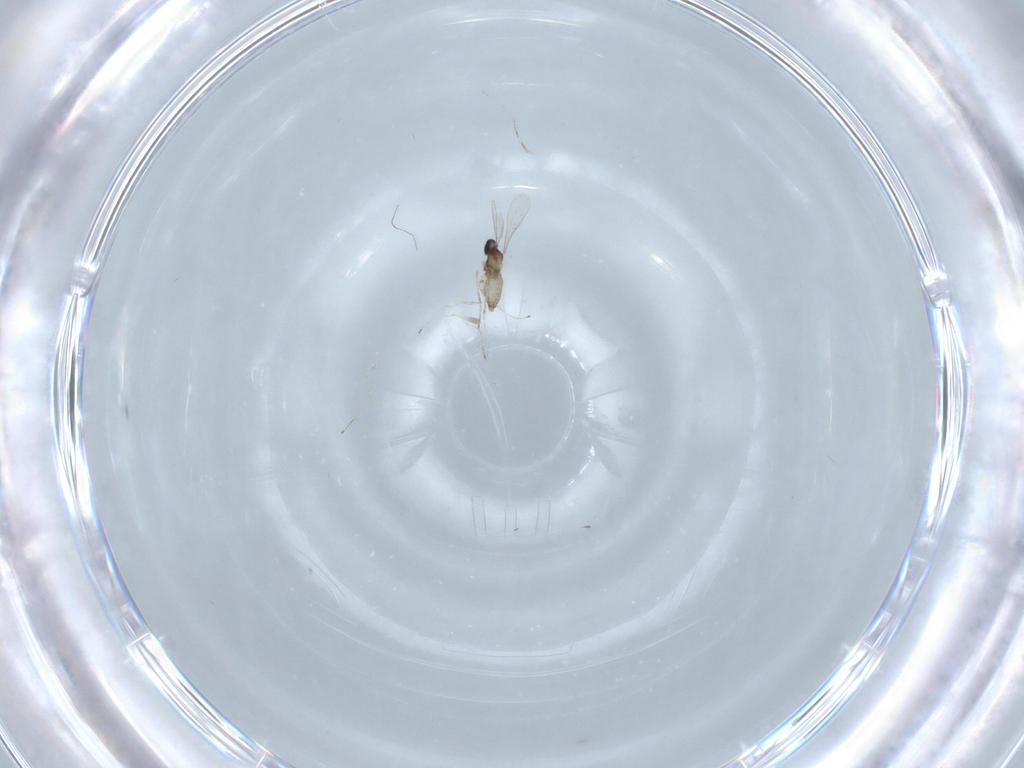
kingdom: Animalia
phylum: Arthropoda
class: Insecta
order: Diptera
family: Cecidomyiidae
